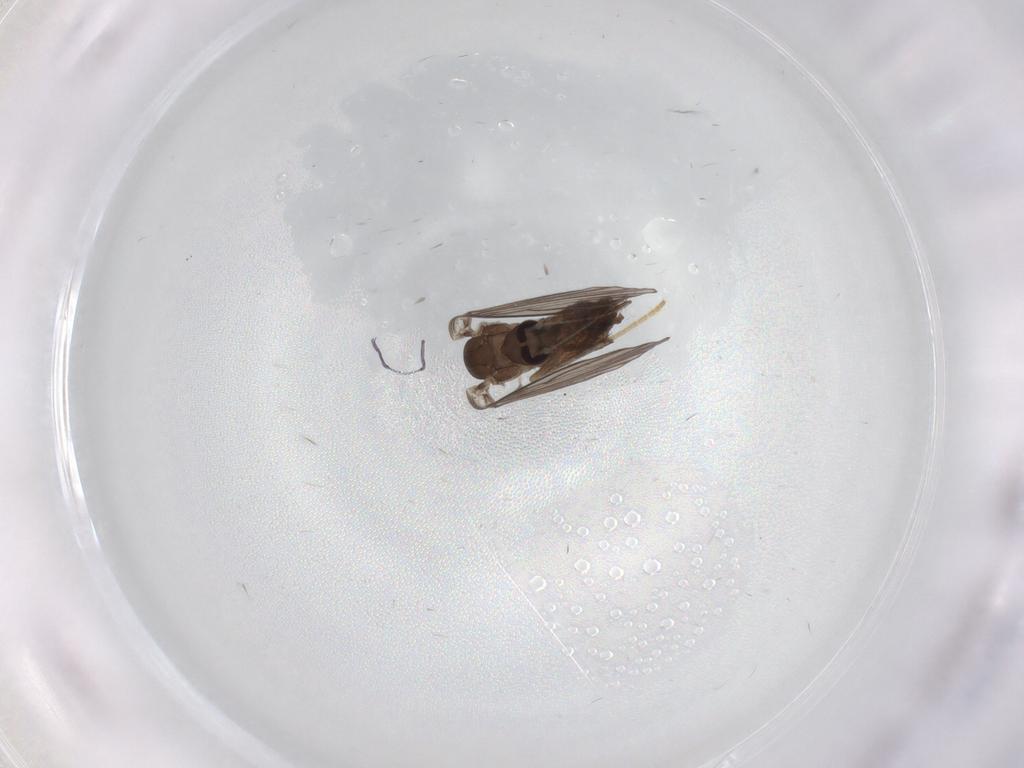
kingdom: Animalia
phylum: Arthropoda
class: Insecta
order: Diptera
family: Psychodidae
